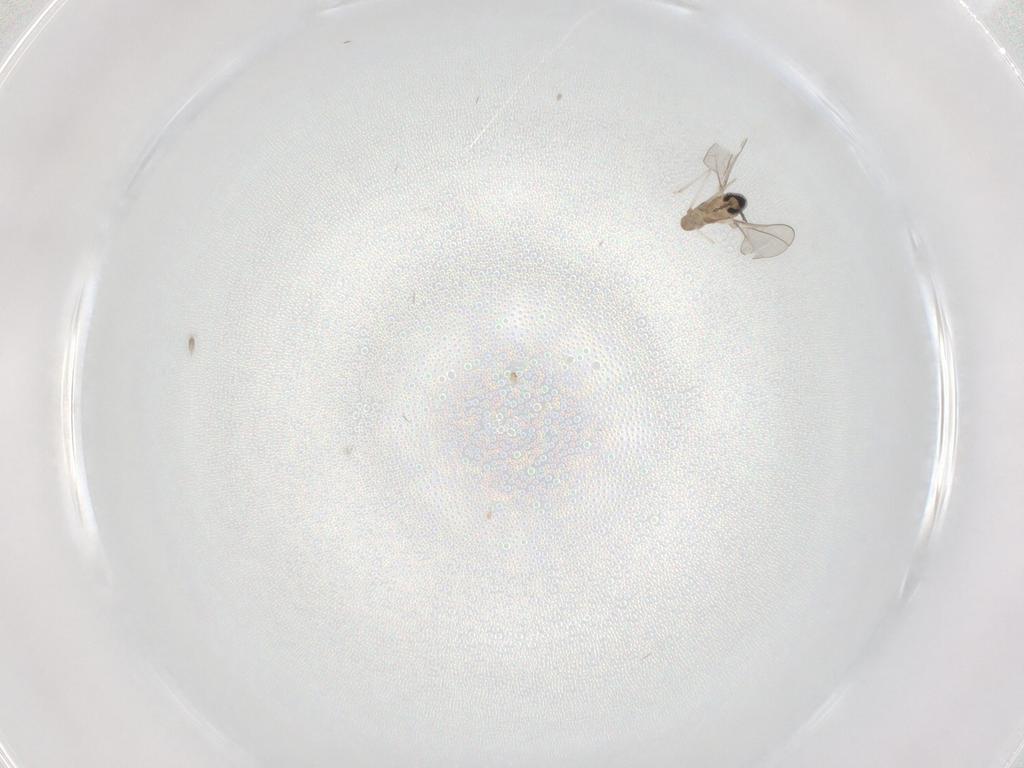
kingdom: Animalia
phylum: Arthropoda
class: Insecta
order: Diptera
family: Cecidomyiidae
